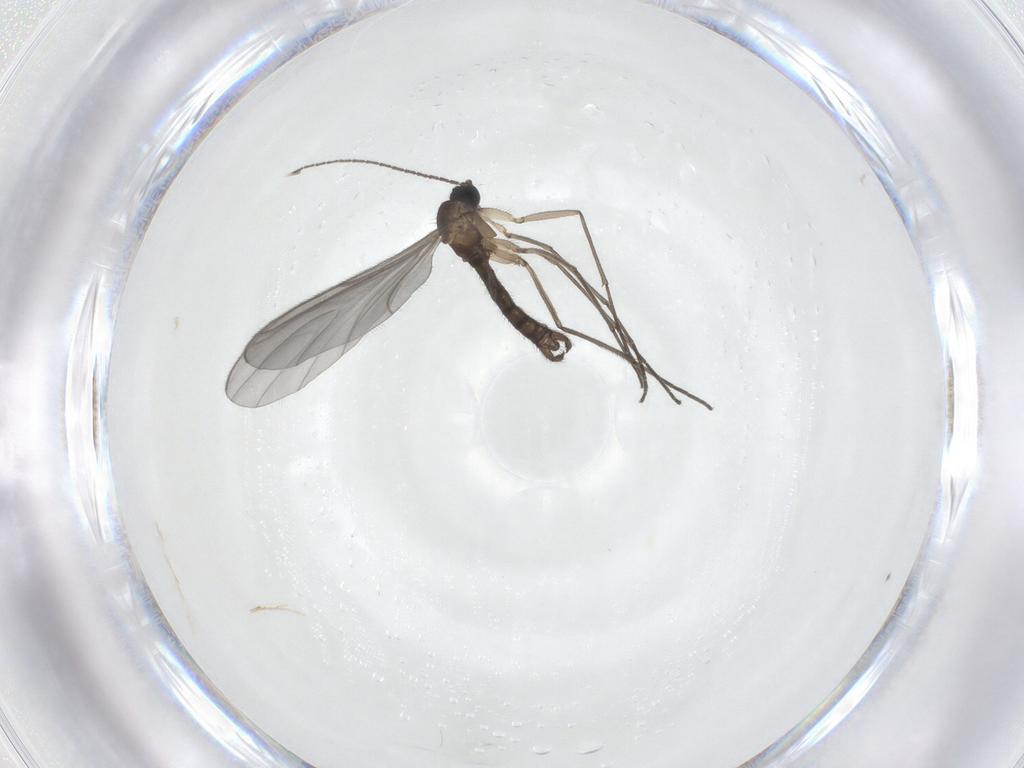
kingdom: Animalia
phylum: Arthropoda
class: Insecta
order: Diptera
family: Sciaridae
